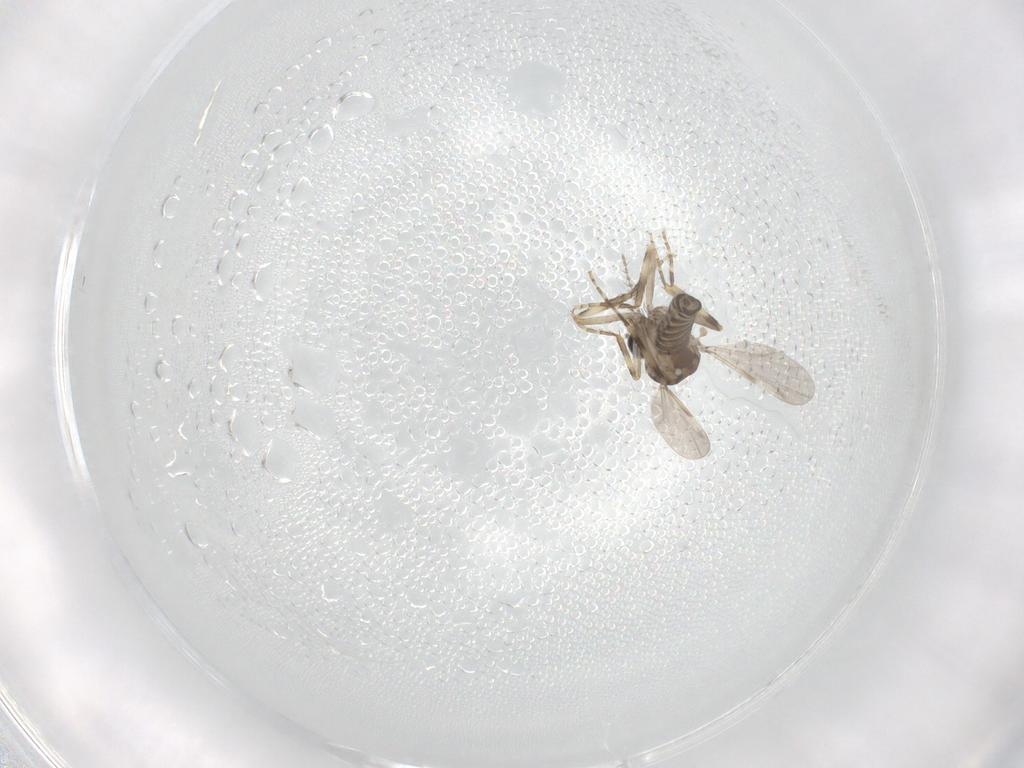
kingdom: Animalia
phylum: Arthropoda
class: Insecta
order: Diptera
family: Ceratopogonidae
